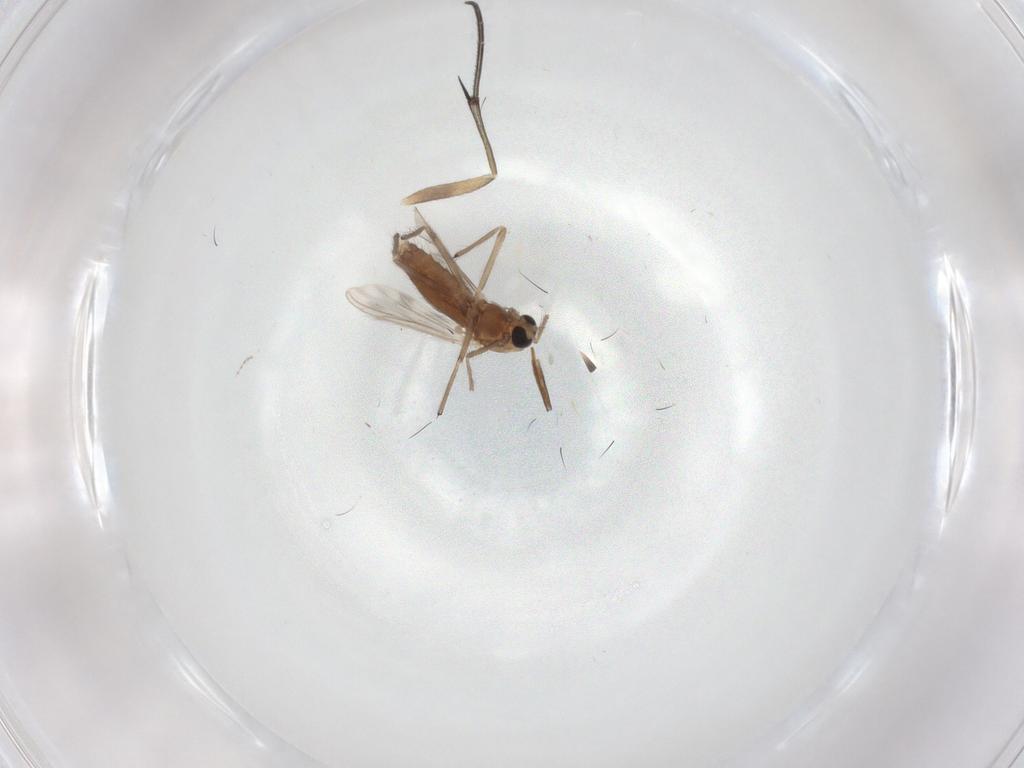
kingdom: Animalia
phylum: Arthropoda
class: Insecta
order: Diptera
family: Chironomidae
